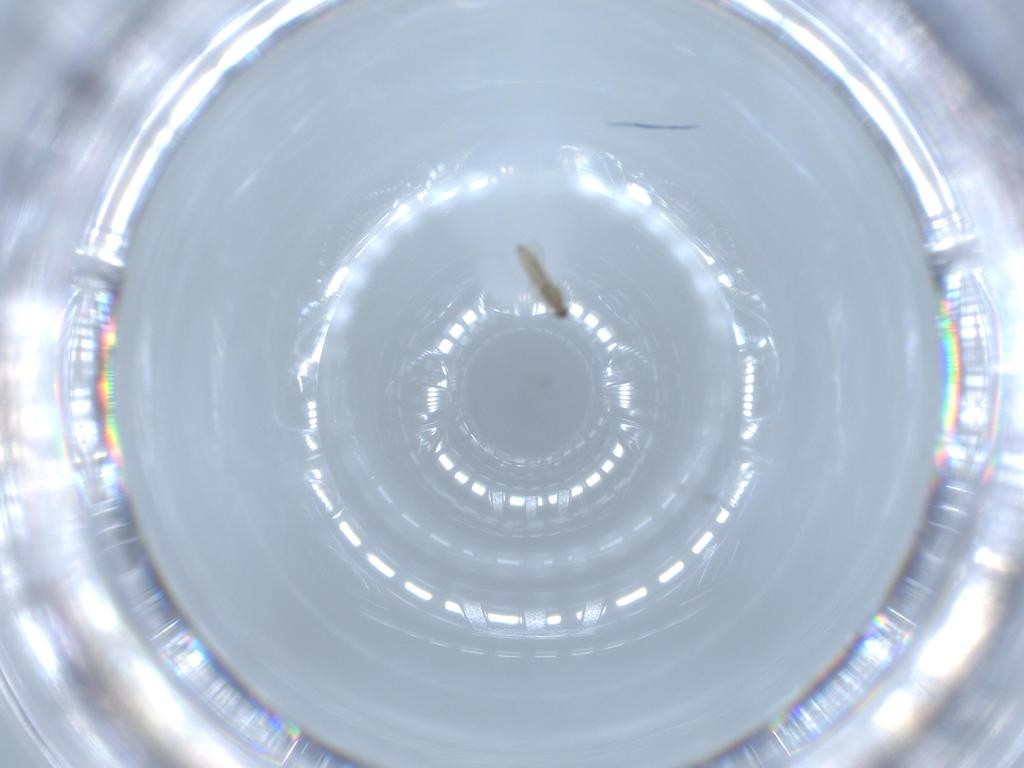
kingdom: Animalia
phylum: Arthropoda
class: Insecta
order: Diptera
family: Cecidomyiidae
